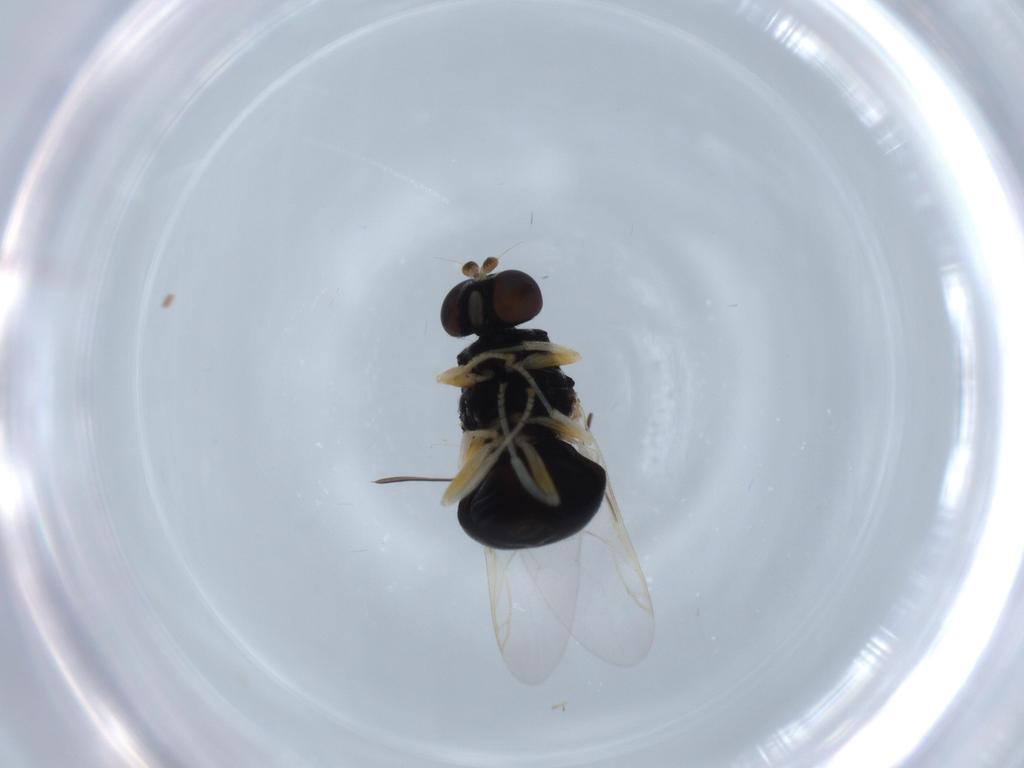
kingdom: Animalia
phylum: Arthropoda
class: Insecta
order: Diptera
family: Stratiomyidae
